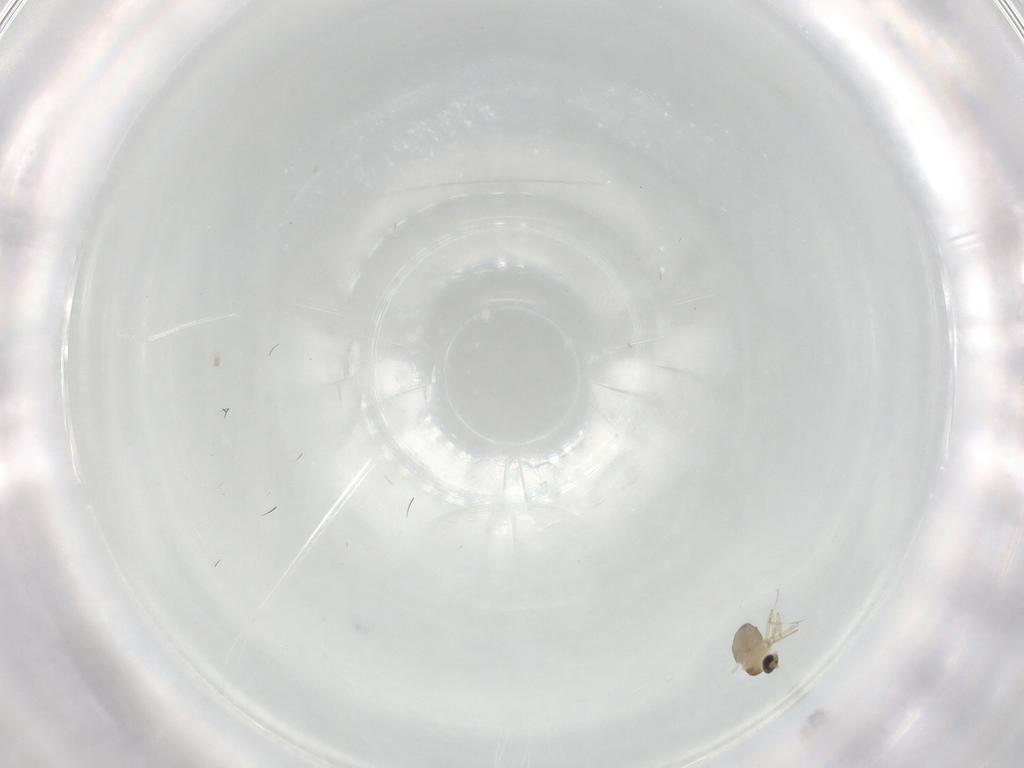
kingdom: Animalia
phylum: Arthropoda
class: Insecta
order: Diptera
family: Cecidomyiidae
